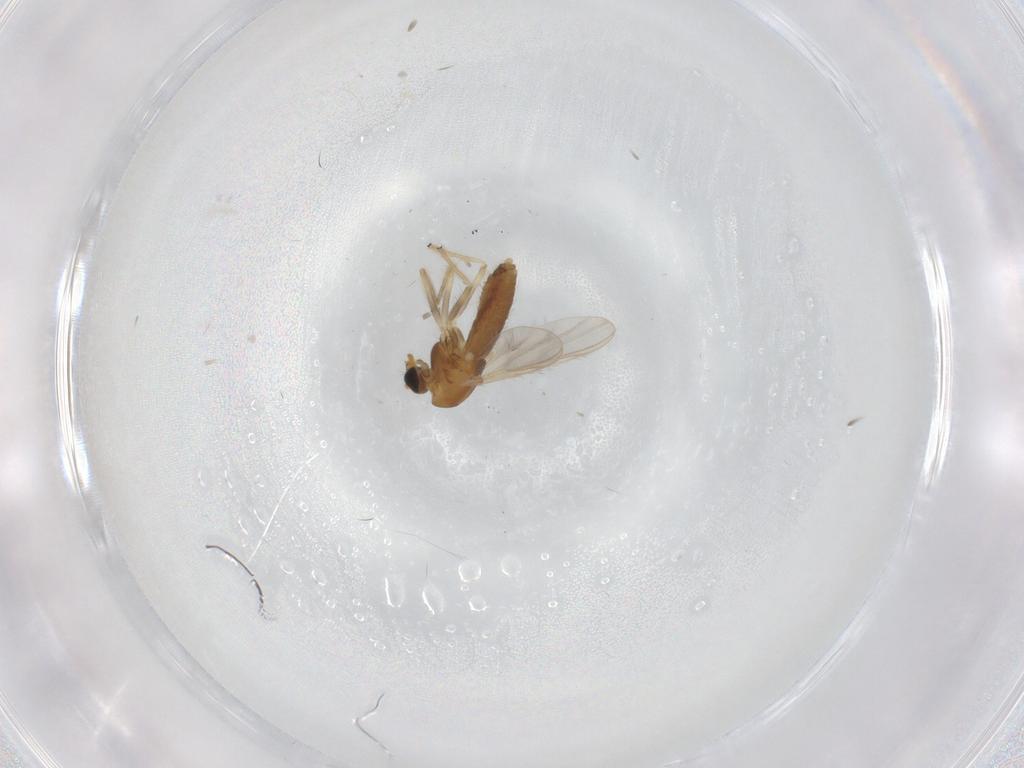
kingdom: Animalia
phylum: Arthropoda
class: Insecta
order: Diptera
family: Chironomidae
